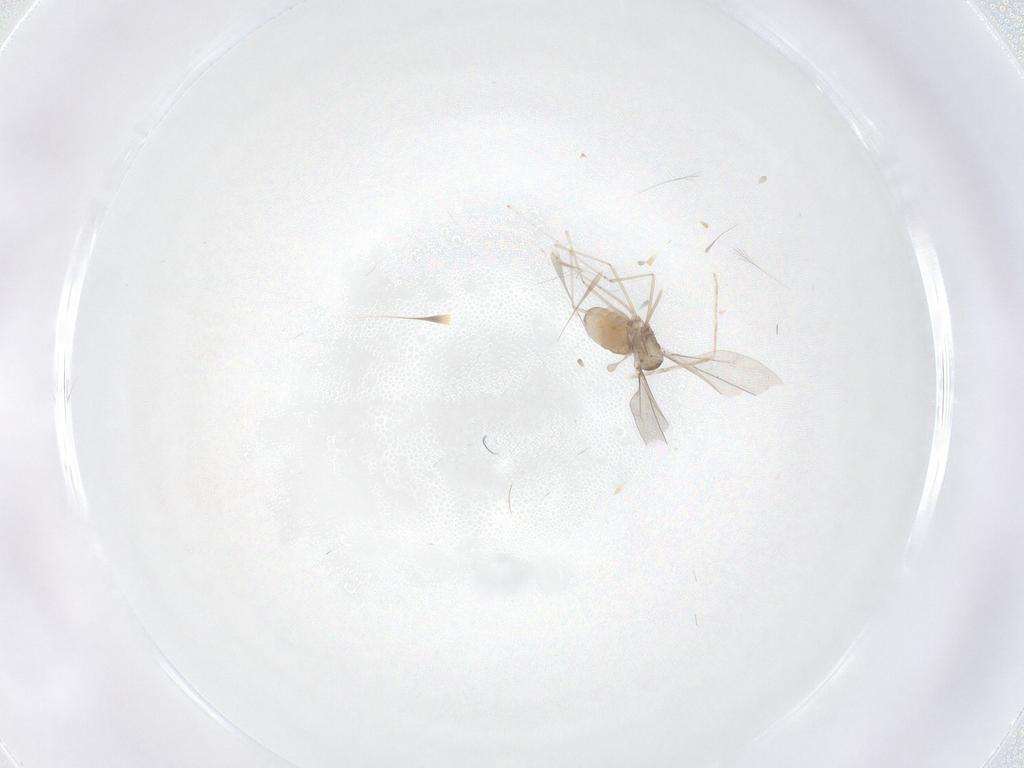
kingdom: Animalia
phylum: Arthropoda
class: Insecta
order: Diptera
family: Cecidomyiidae
